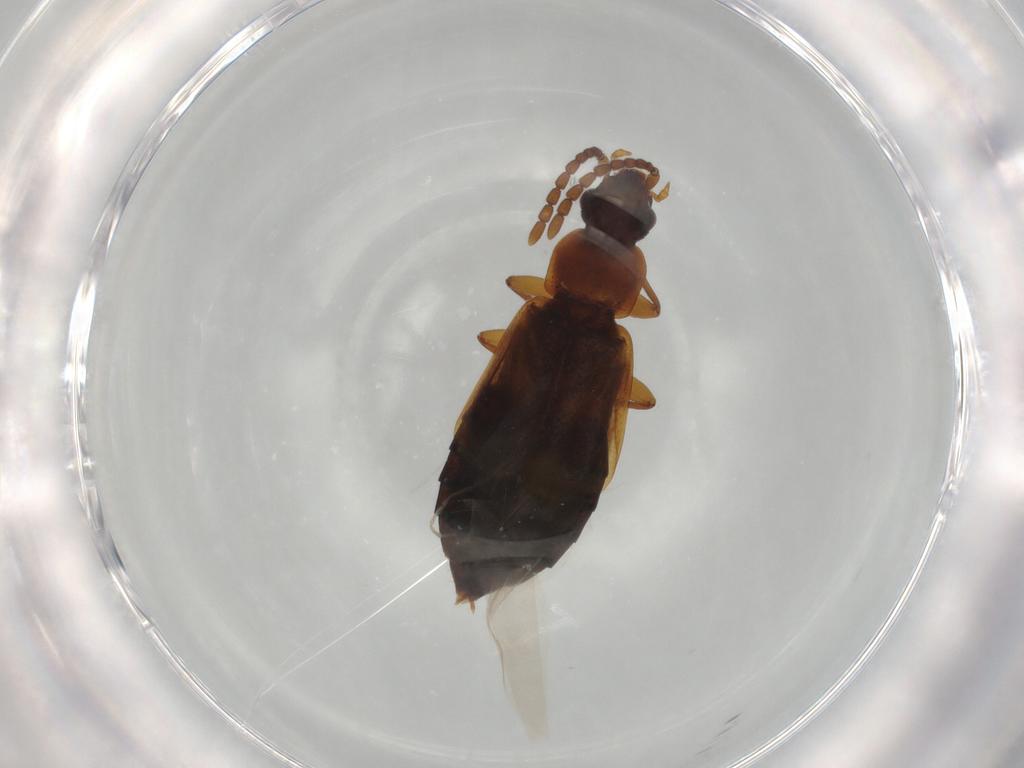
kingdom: Animalia
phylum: Arthropoda
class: Insecta
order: Coleoptera
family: Staphylinidae
